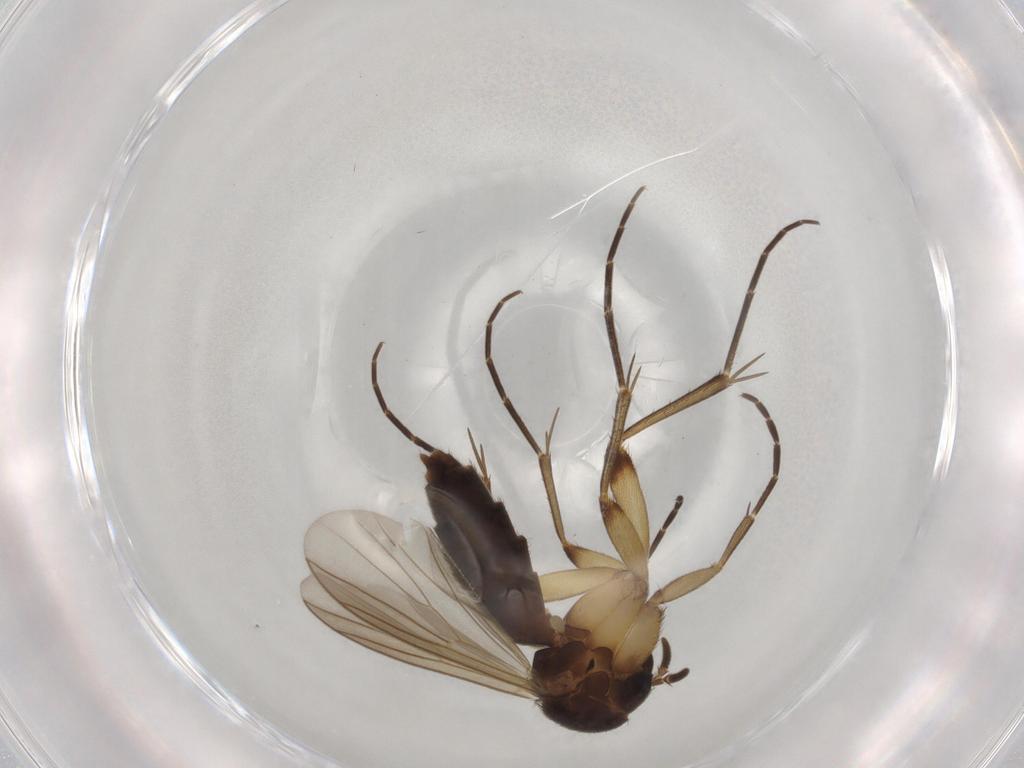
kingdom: Animalia
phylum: Arthropoda
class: Insecta
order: Diptera
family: Mycetophilidae
